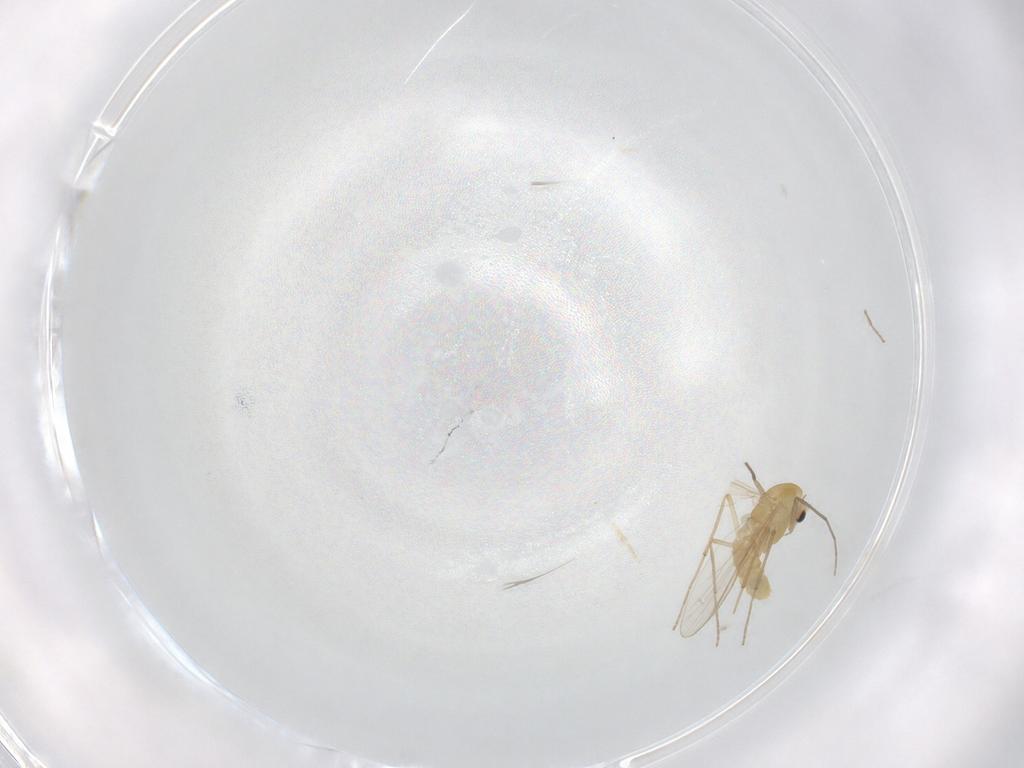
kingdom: Animalia
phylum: Arthropoda
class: Insecta
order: Diptera
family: Chironomidae
